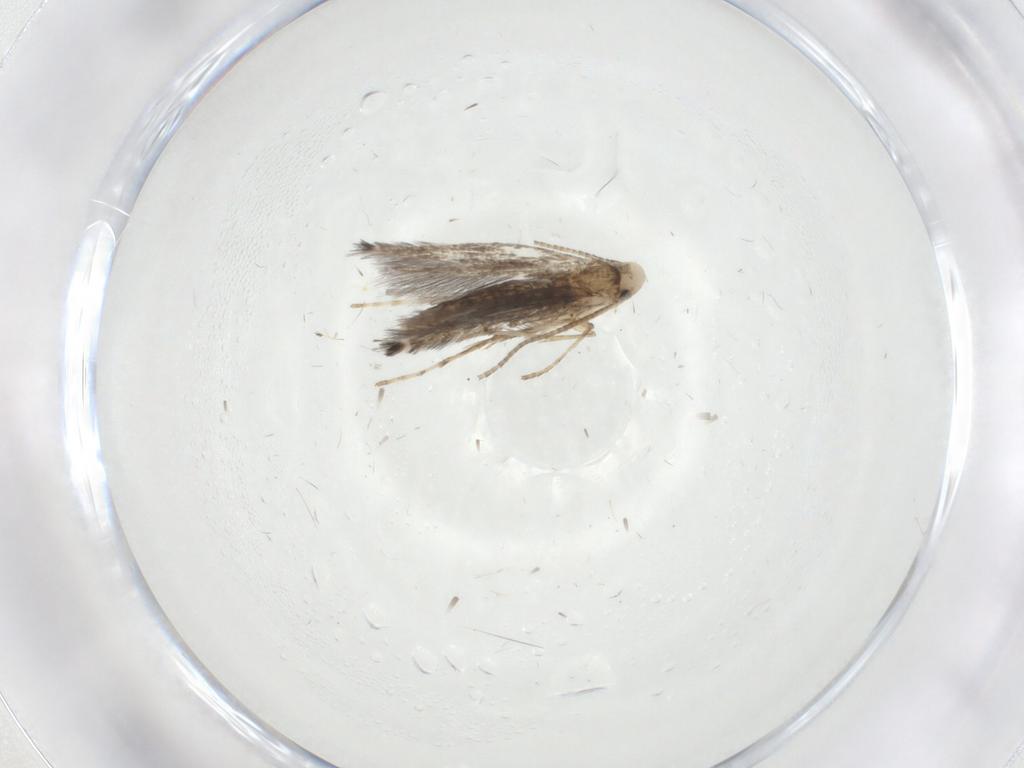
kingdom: Animalia
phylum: Arthropoda
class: Insecta
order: Lepidoptera
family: Nepticulidae
